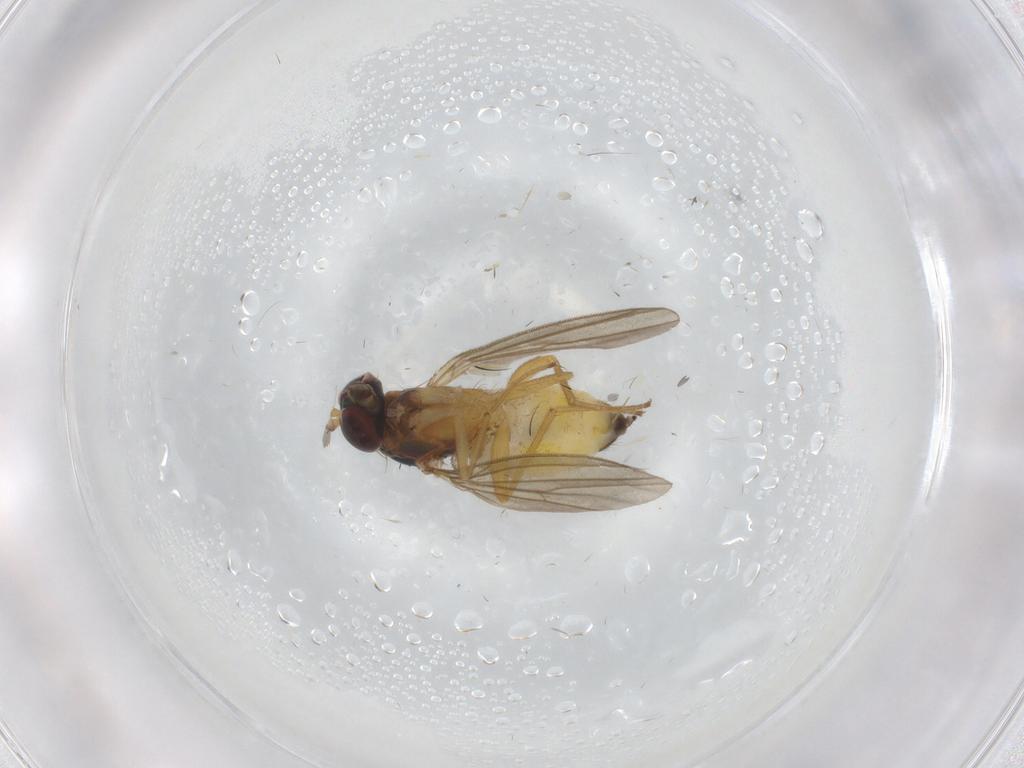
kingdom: Animalia
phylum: Arthropoda
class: Insecta
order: Diptera
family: Dolichopodidae
